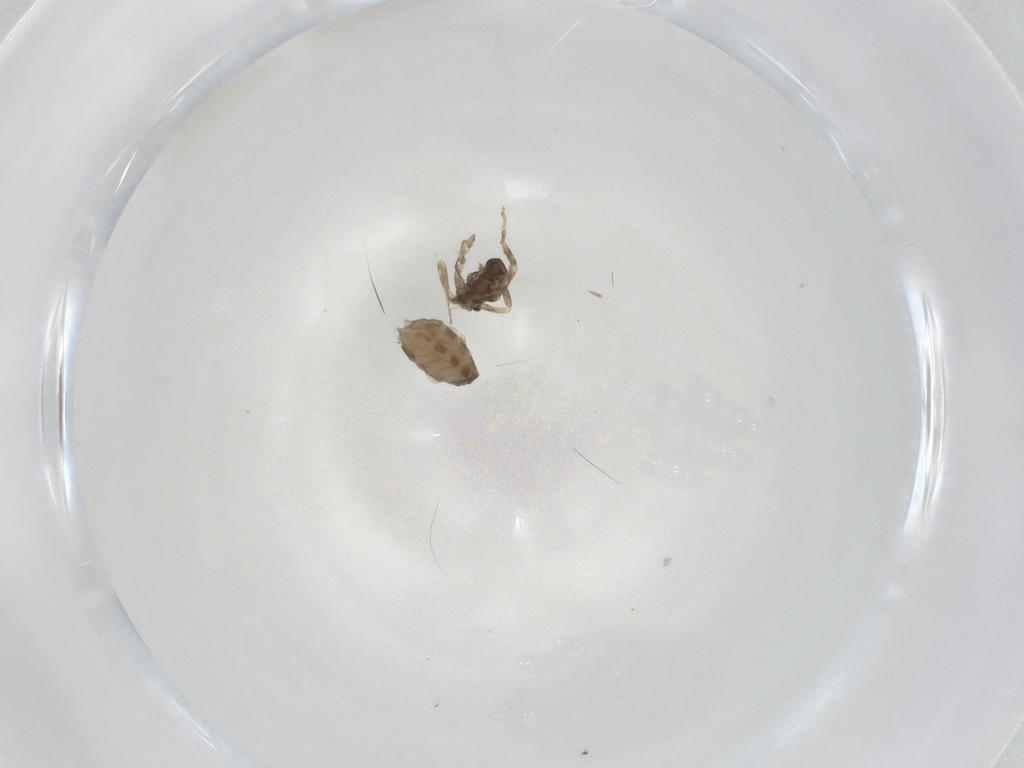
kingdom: Animalia
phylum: Arthropoda
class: Insecta
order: Diptera
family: Ceratopogonidae
